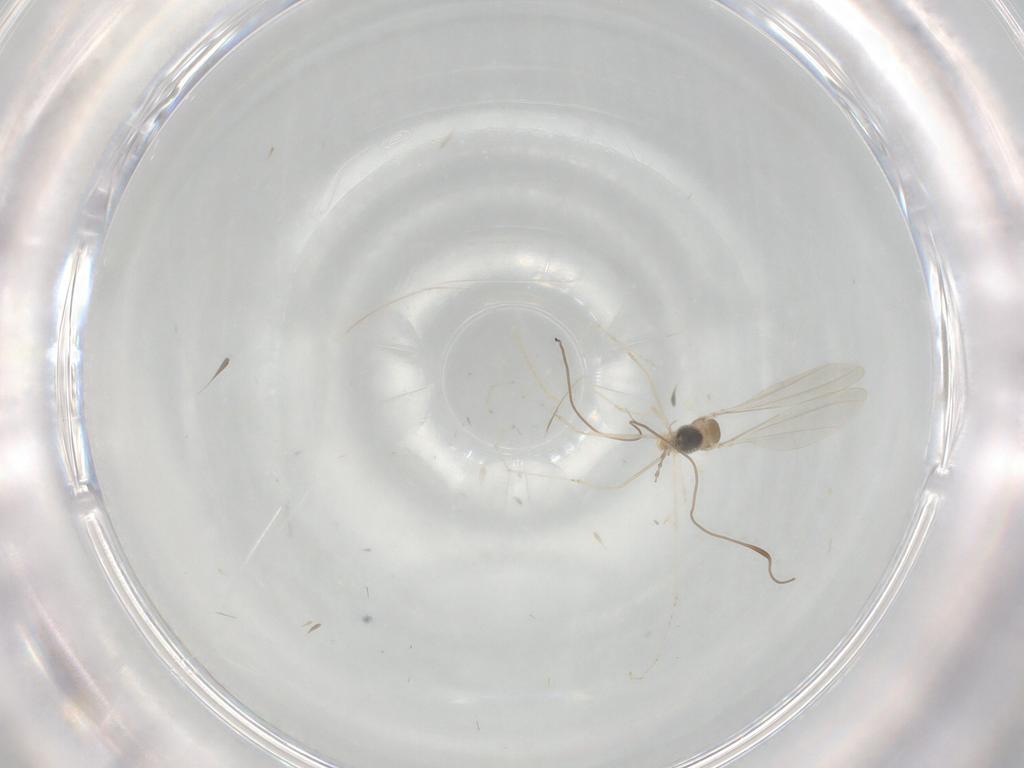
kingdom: Animalia
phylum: Arthropoda
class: Insecta
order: Diptera
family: Cecidomyiidae
